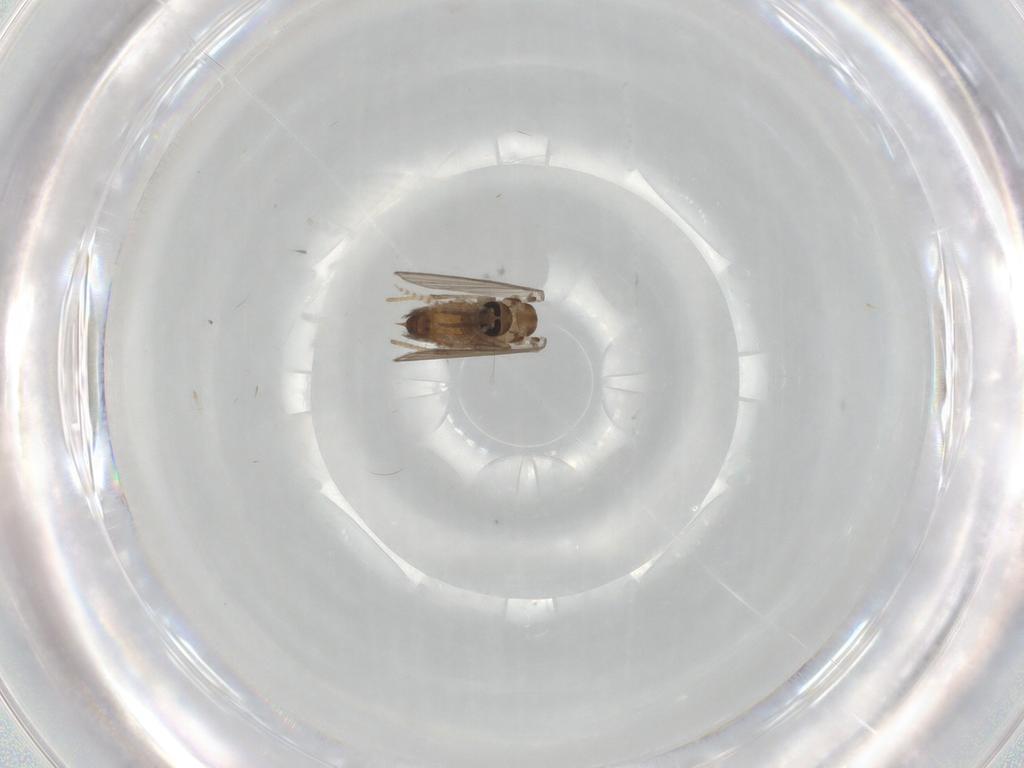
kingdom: Animalia
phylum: Arthropoda
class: Insecta
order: Diptera
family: Psychodidae
